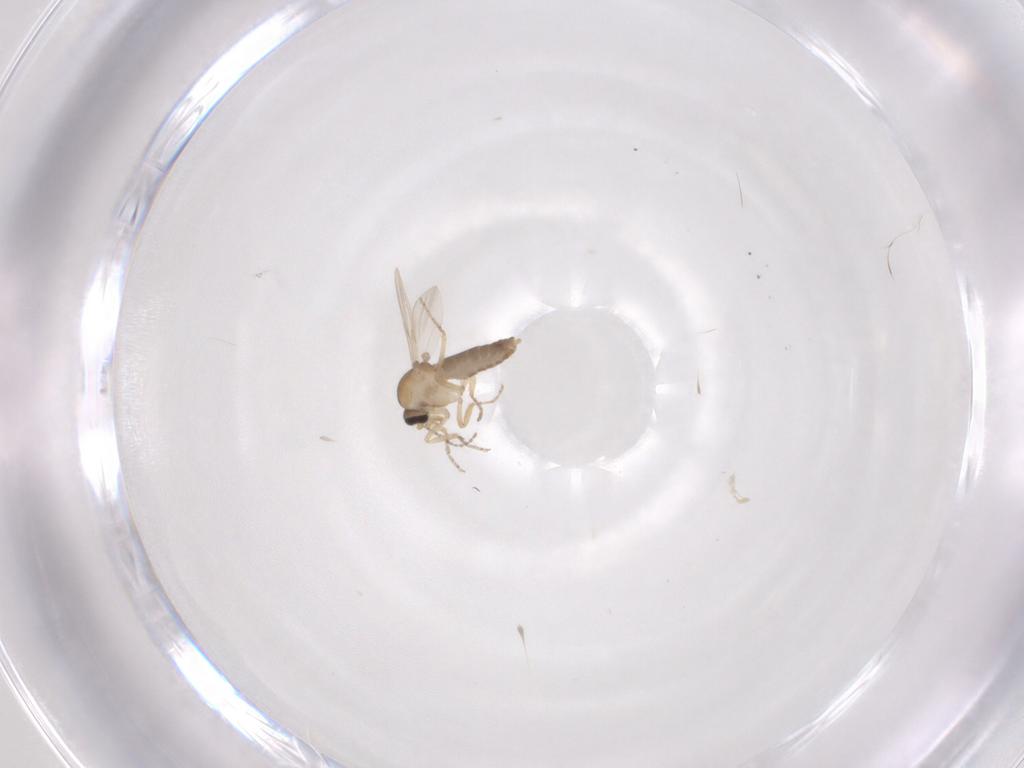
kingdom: Animalia
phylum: Arthropoda
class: Insecta
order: Diptera
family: Ceratopogonidae
